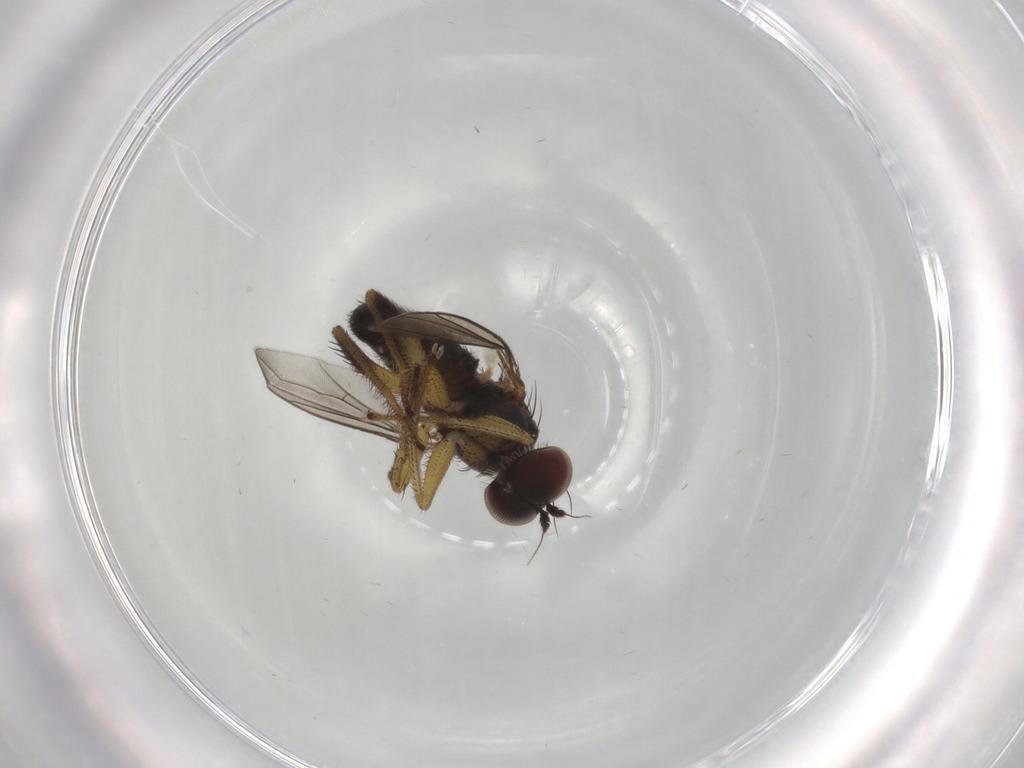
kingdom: Animalia
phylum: Arthropoda
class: Insecta
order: Diptera
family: Dolichopodidae
